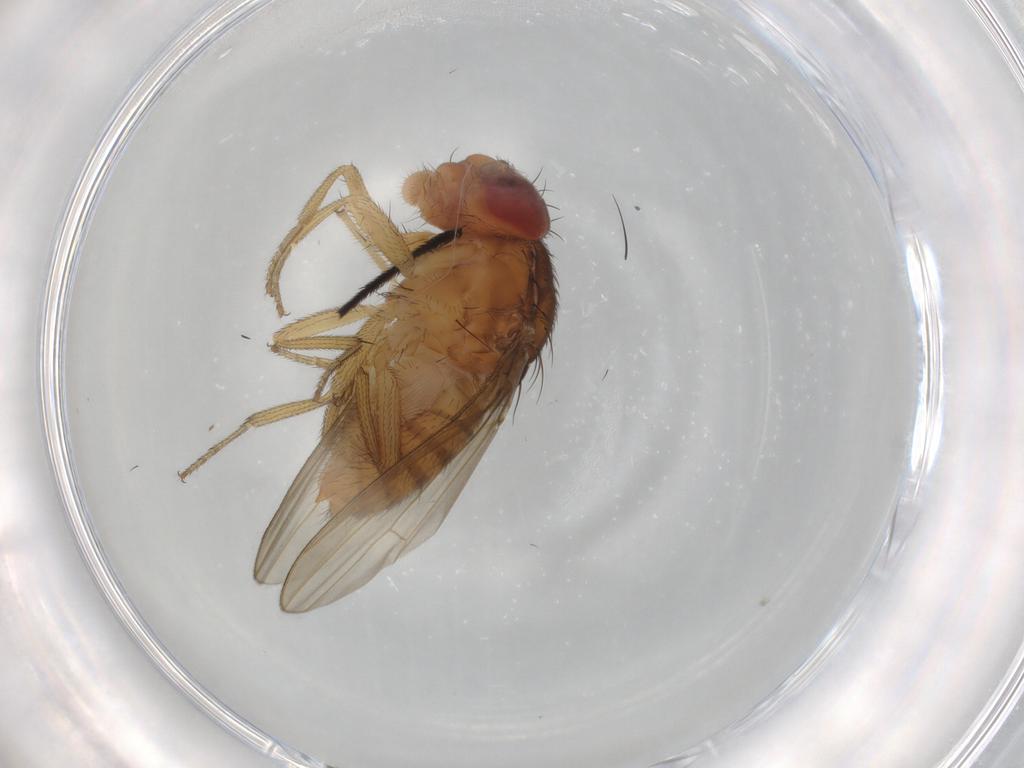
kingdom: Animalia
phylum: Arthropoda
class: Insecta
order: Diptera
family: Drosophilidae
